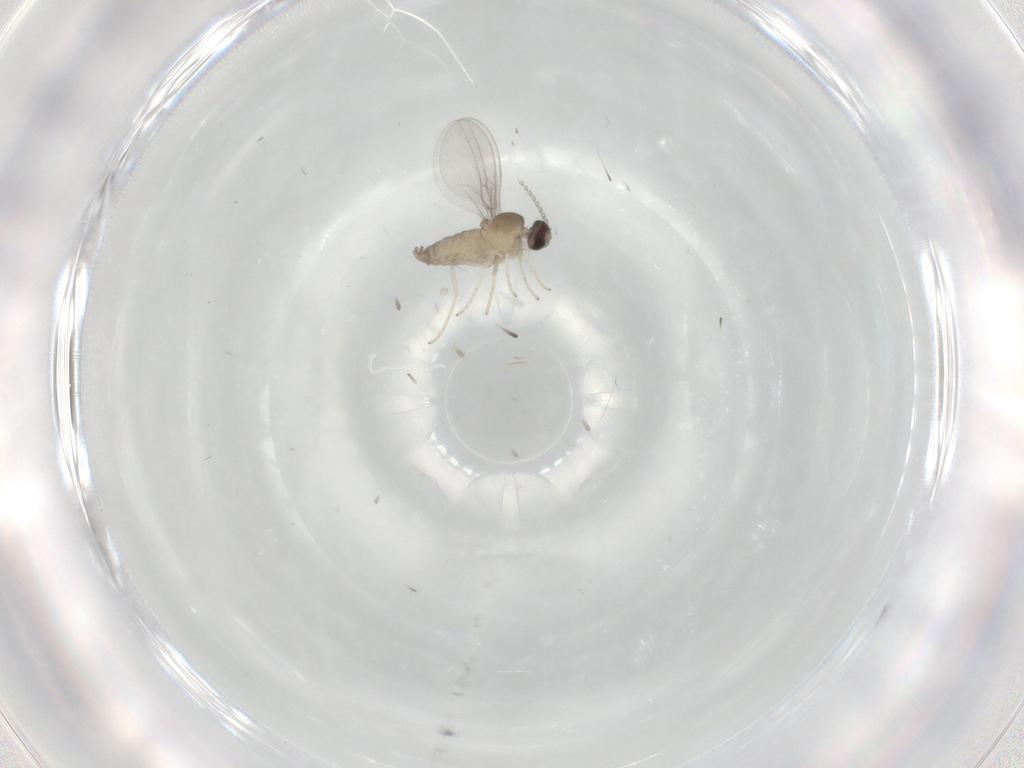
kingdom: Animalia
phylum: Arthropoda
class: Insecta
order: Diptera
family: Cecidomyiidae
